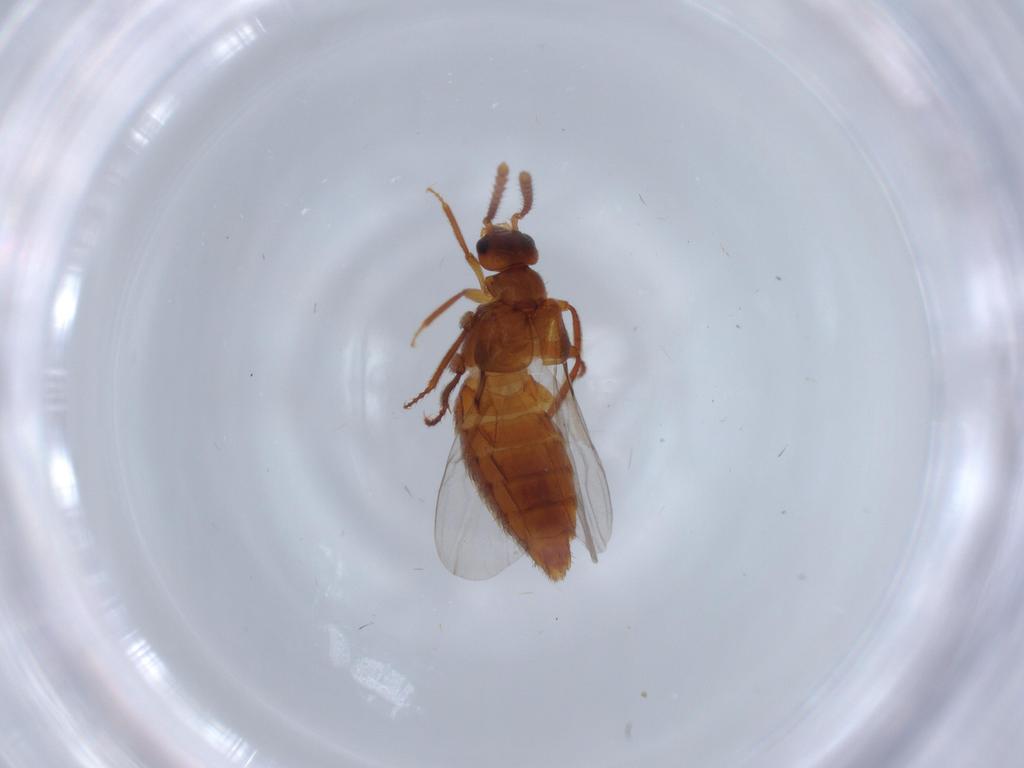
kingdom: Animalia
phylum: Arthropoda
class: Insecta
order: Coleoptera
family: Staphylinidae
